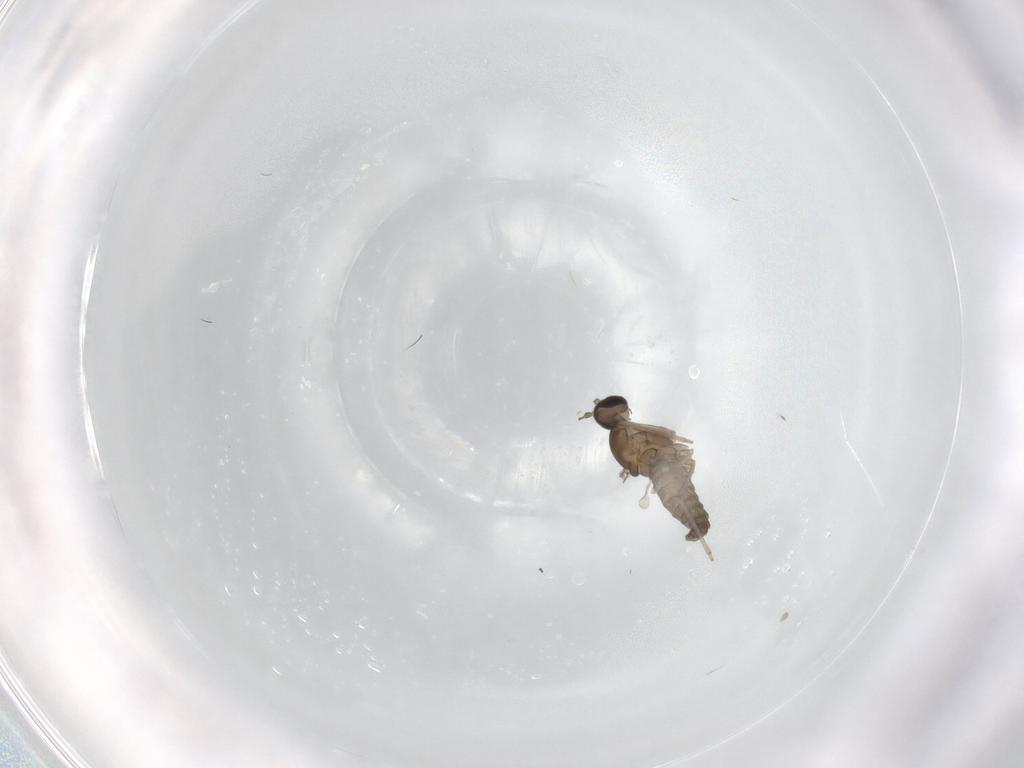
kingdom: Animalia
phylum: Arthropoda
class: Insecta
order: Diptera
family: Cecidomyiidae
